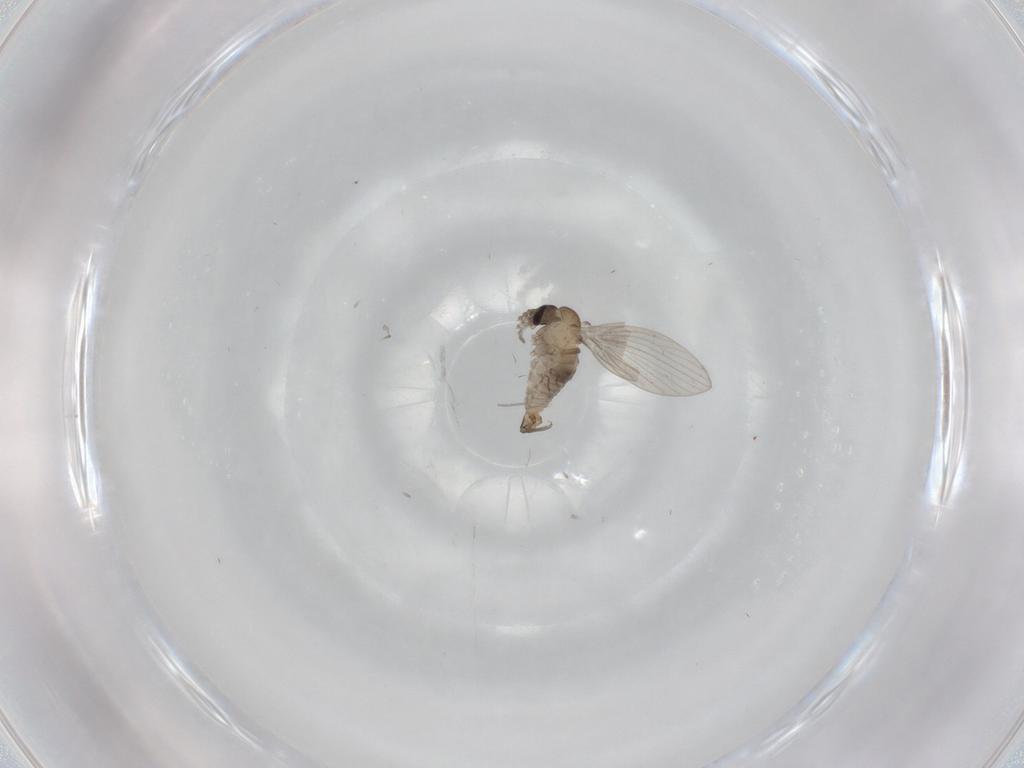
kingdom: Animalia
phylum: Arthropoda
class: Insecta
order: Diptera
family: Psychodidae
